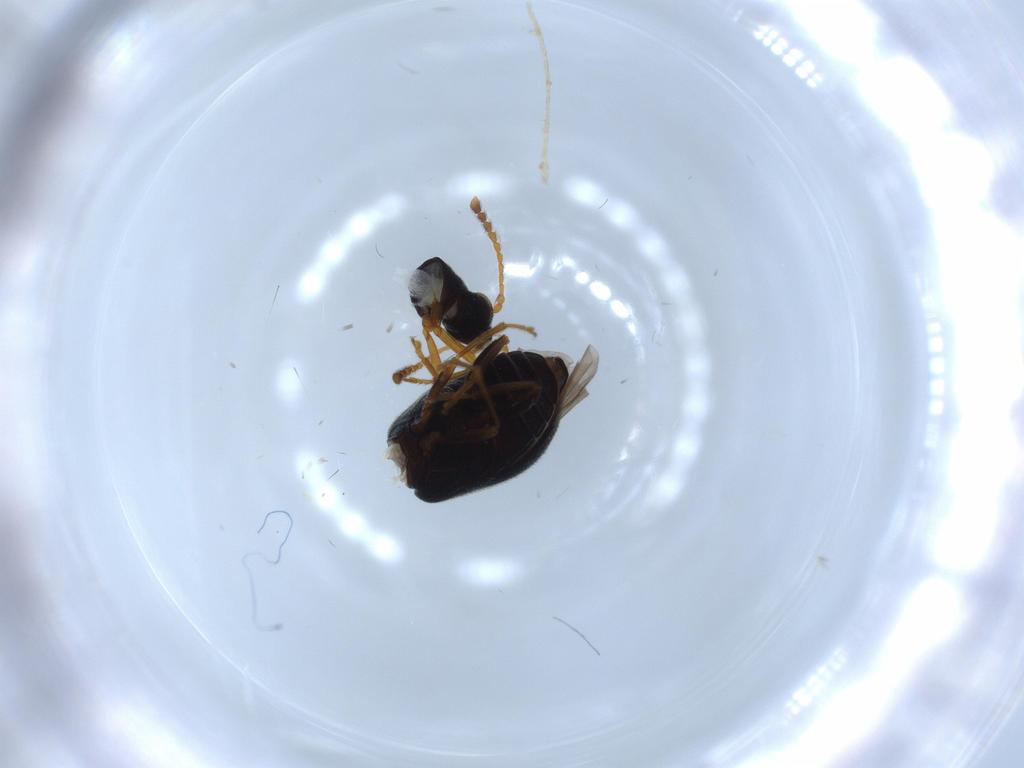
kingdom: Animalia
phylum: Arthropoda
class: Insecta
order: Coleoptera
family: Aderidae
